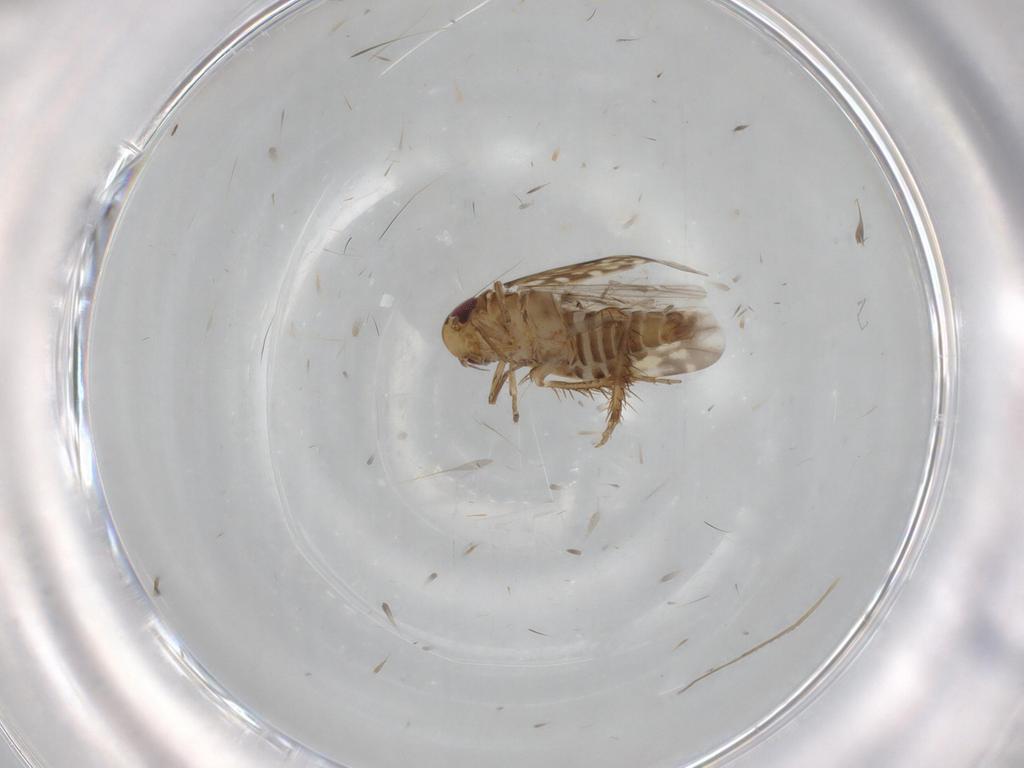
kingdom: Animalia
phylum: Arthropoda
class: Insecta
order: Hemiptera
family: Cicadellidae
